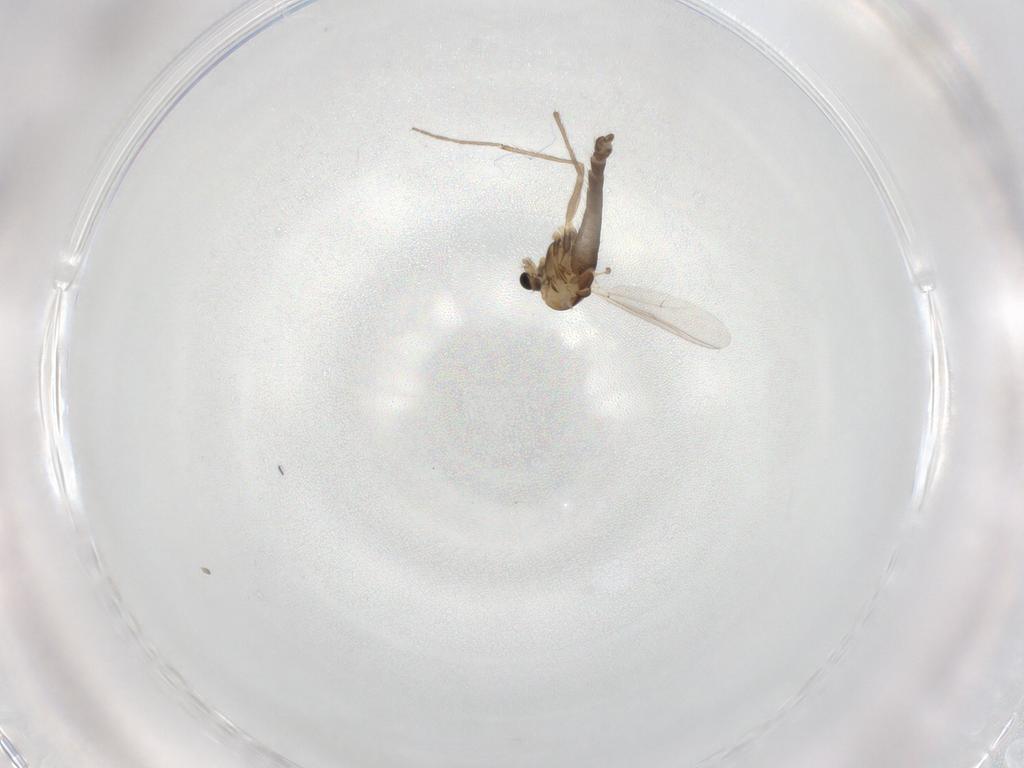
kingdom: Animalia
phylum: Arthropoda
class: Insecta
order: Diptera
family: Chironomidae
